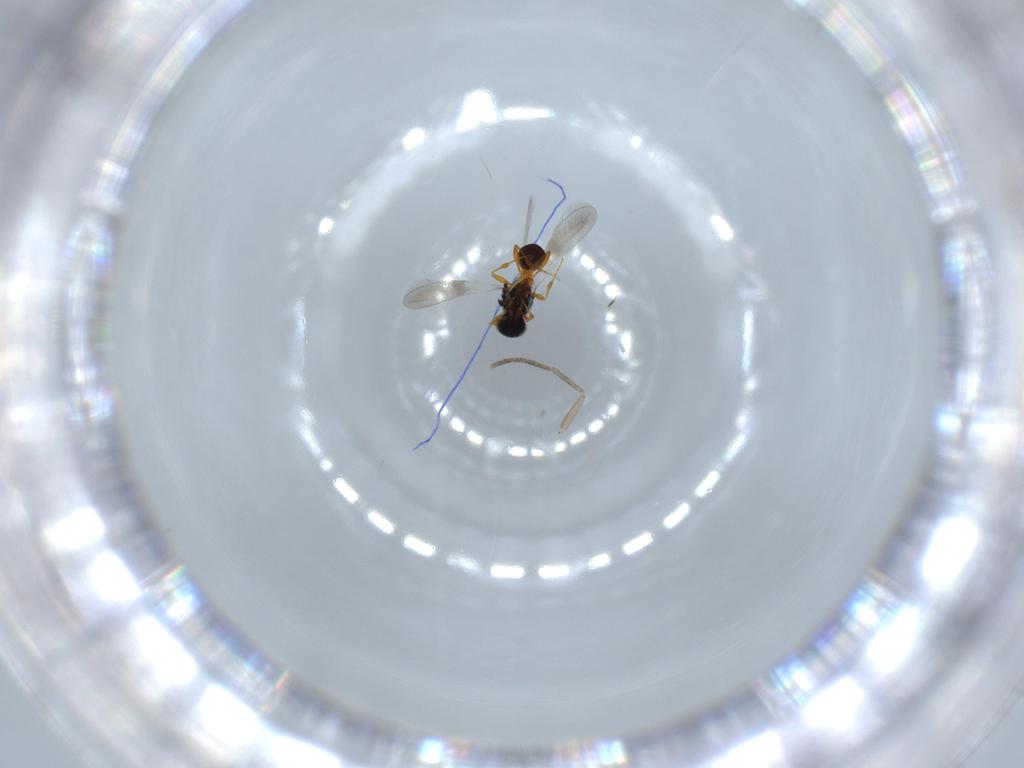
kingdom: Animalia
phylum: Arthropoda
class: Insecta
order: Hymenoptera
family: Platygastridae
